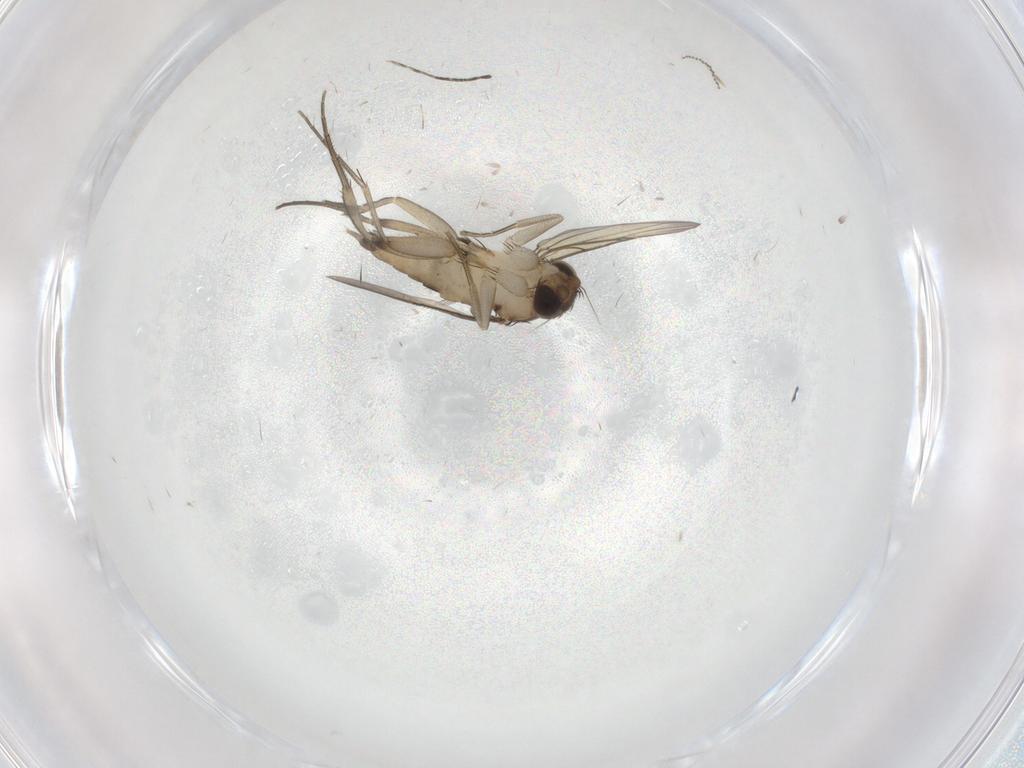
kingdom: Animalia
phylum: Arthropoda
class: Insecta
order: Diptera
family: Phoridae
